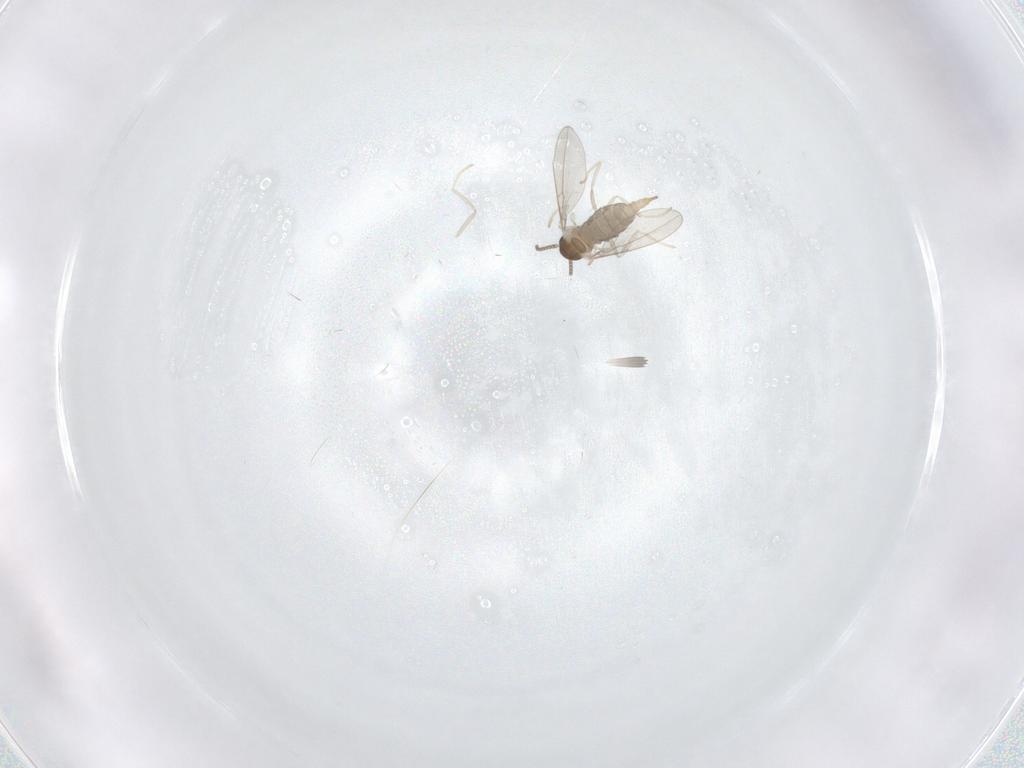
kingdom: Animalia
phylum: Arthropoda
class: Insecta
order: Diptera
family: Cecidomyiidae
